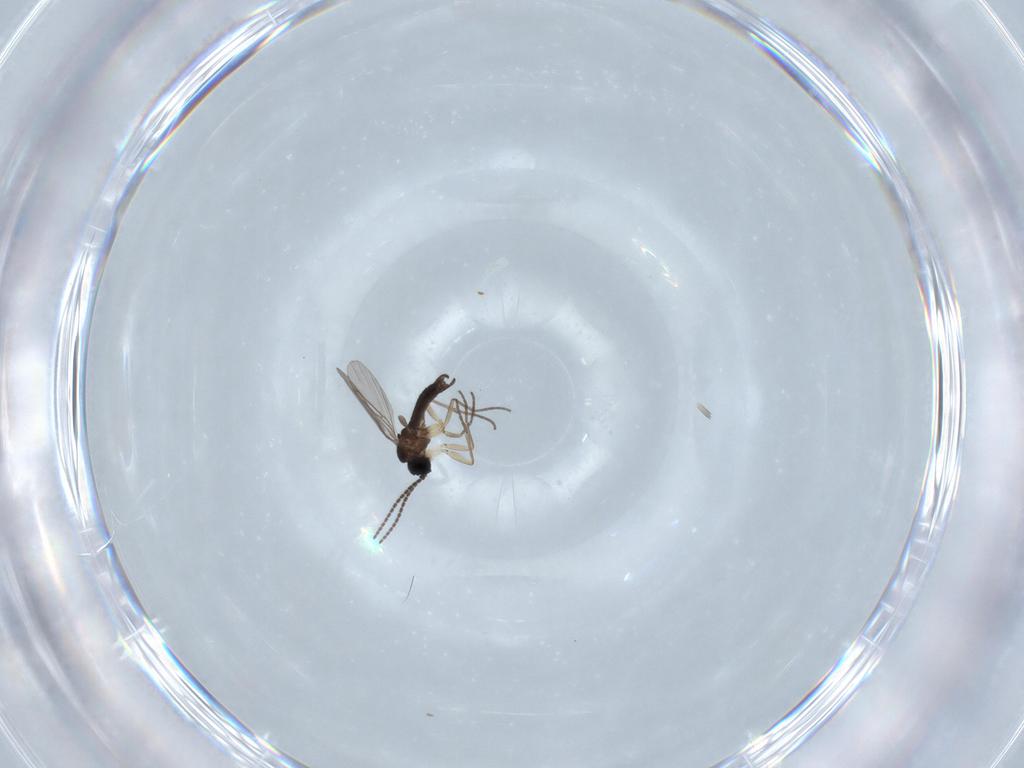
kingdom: Animalia
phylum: Arthropoda
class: Insecta
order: Diptera
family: Sciaridae
